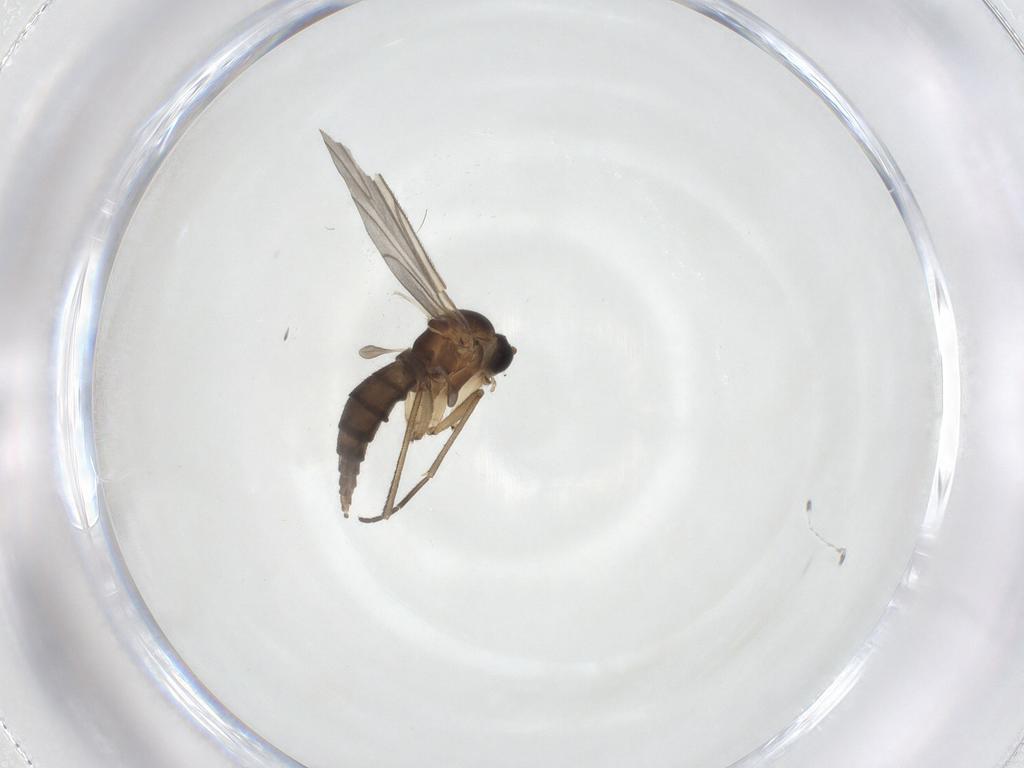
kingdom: Animalia
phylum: Arthropoda
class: Insecta
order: Diptera
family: Sciaridae
